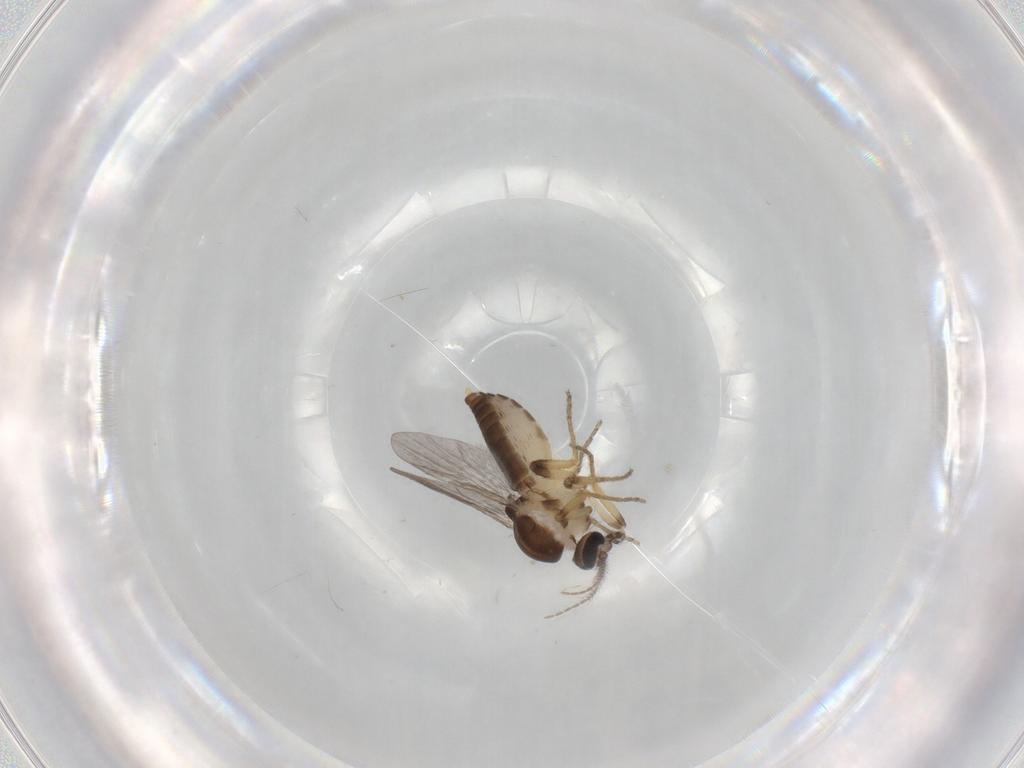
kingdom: Animalia
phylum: Arthropoda
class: Insecta
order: Diptera
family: Ceratopogonidae
